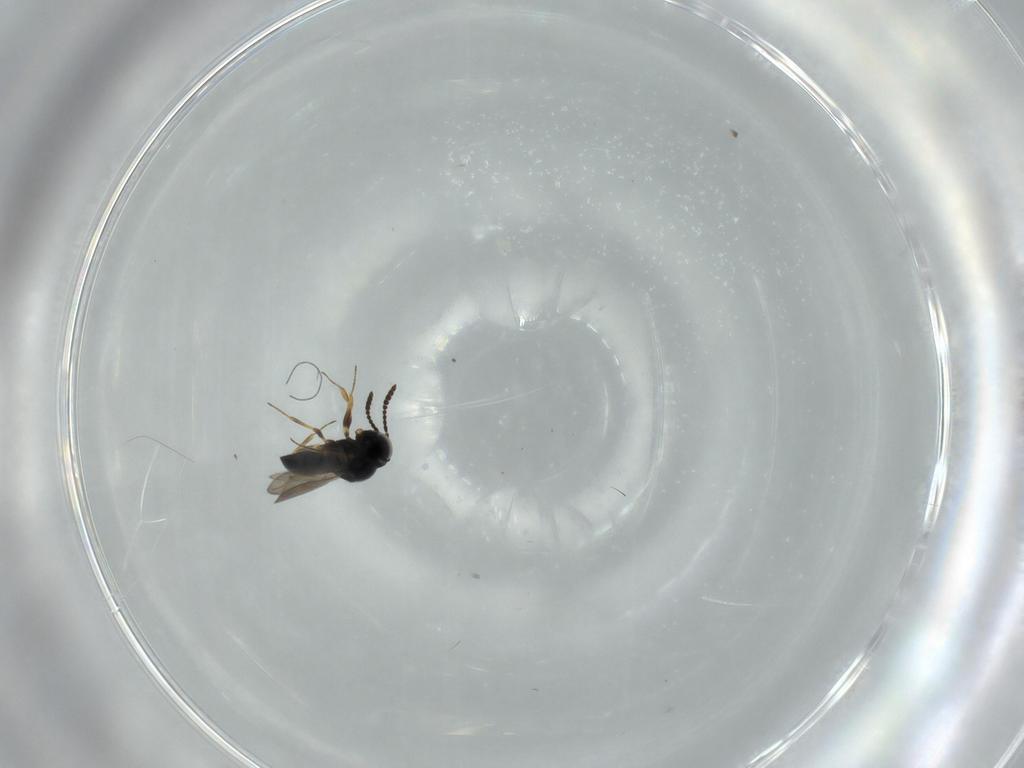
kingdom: Animalia
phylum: Arthropoda
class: Insecta
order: Hymenoptera
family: Scelionidae
